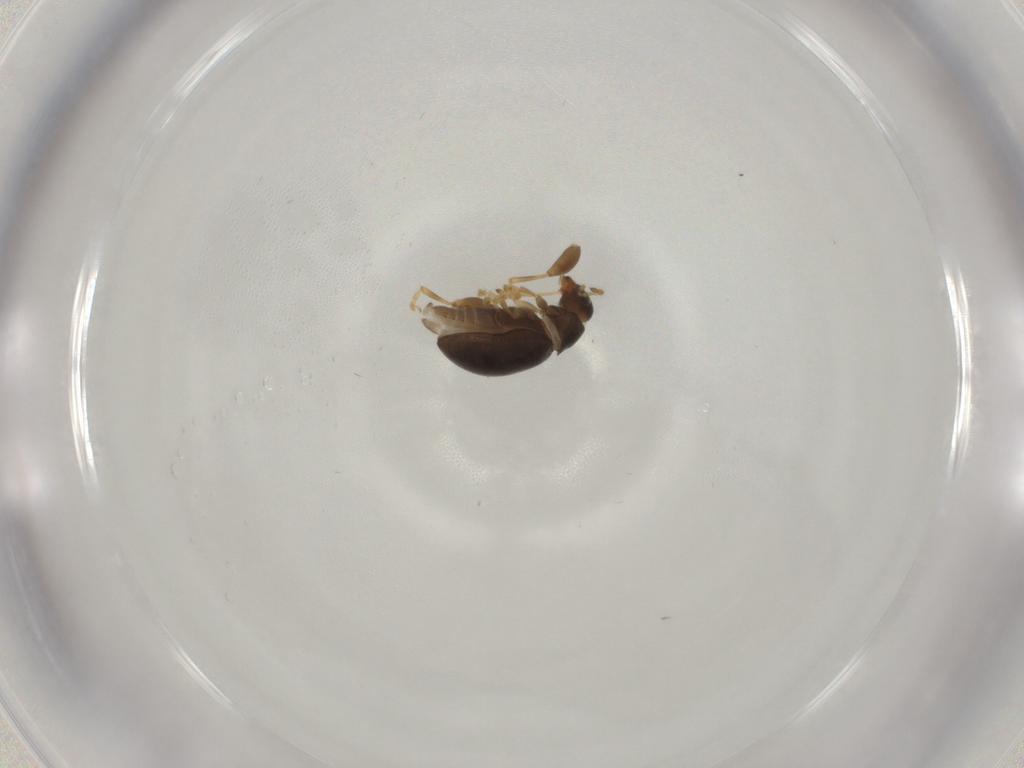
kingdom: Animalia
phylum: Arthropoda
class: Insecta
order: Coleoptera
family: Chrysomelidae
